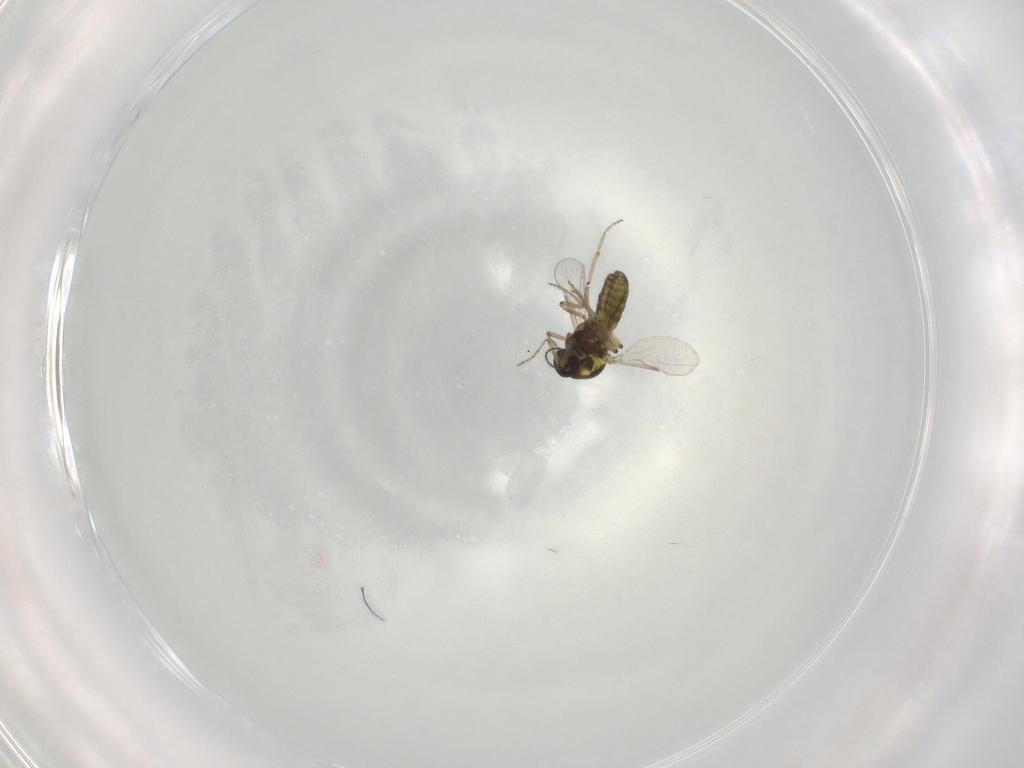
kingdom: Animalia
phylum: Arthropoda
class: Insecta
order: Diptera
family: Ceratopogonidae
